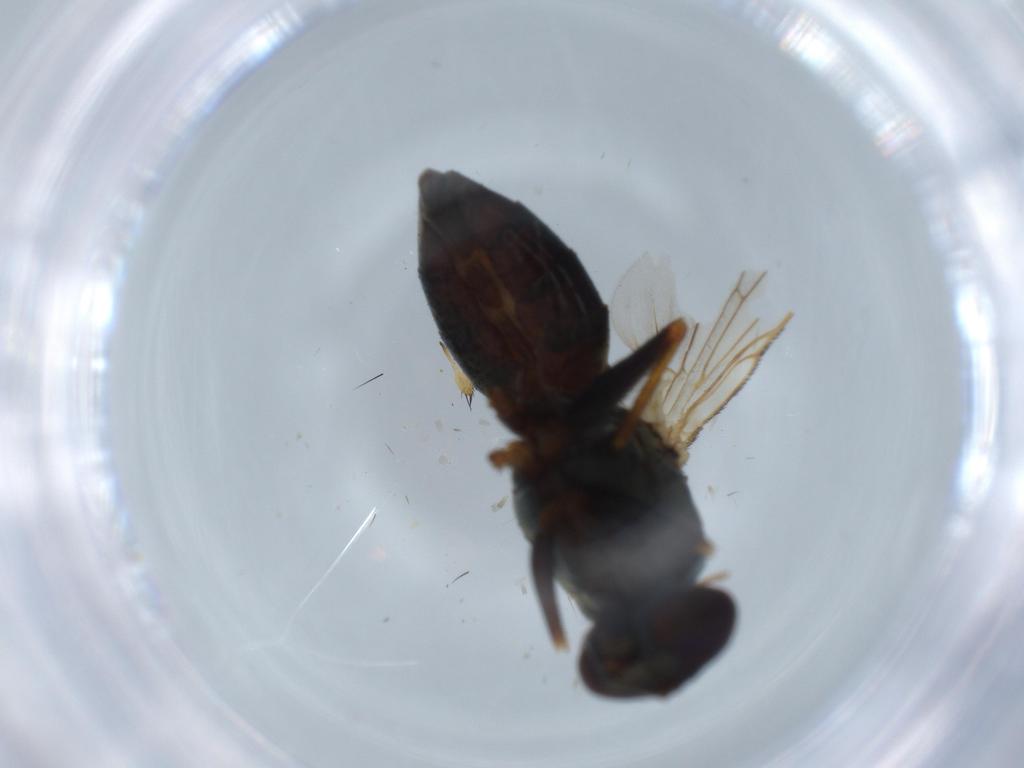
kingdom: Animalia
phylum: Arthropoda
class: Insecta
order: Diptera
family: Muscidae
